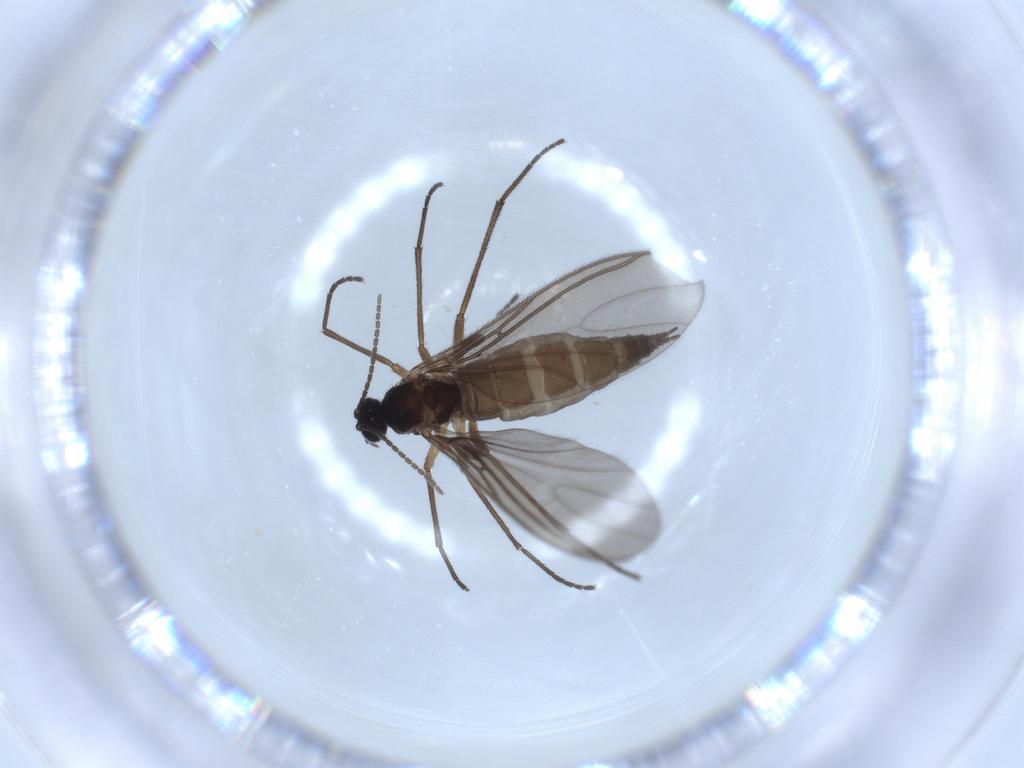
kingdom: Animalia
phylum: Arthropoda
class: Insecta
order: Diptera
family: Sciaridae
